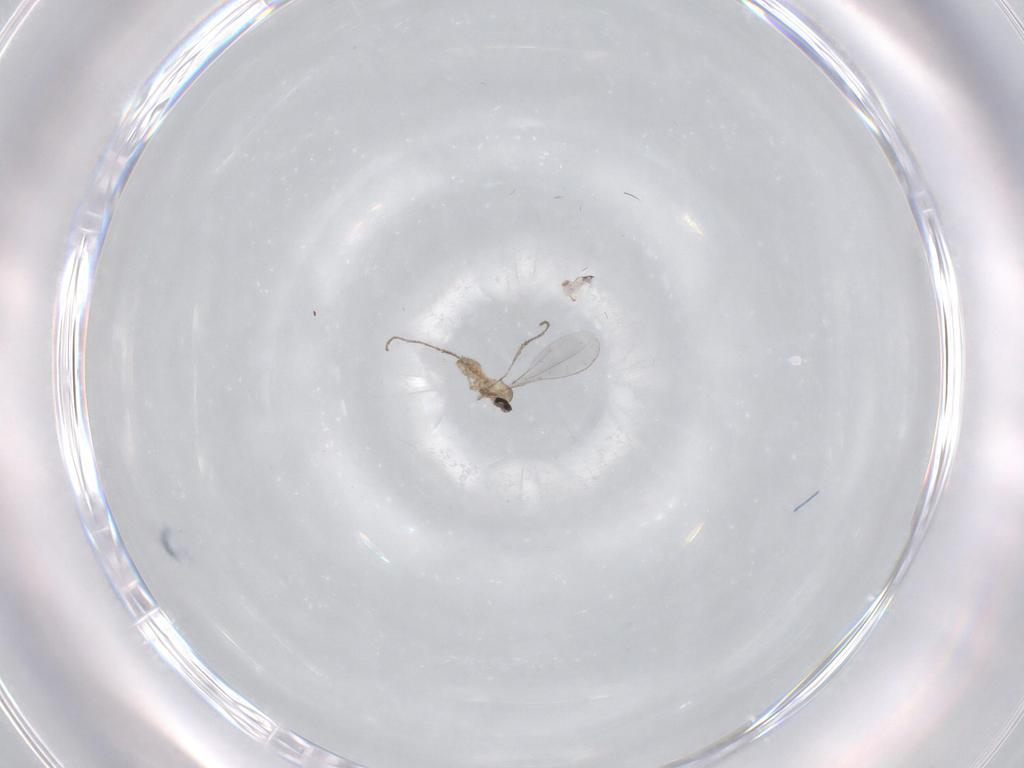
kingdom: Animalia
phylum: Arthropoda
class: Insecta
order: Diptera
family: Cecidomyiidae
